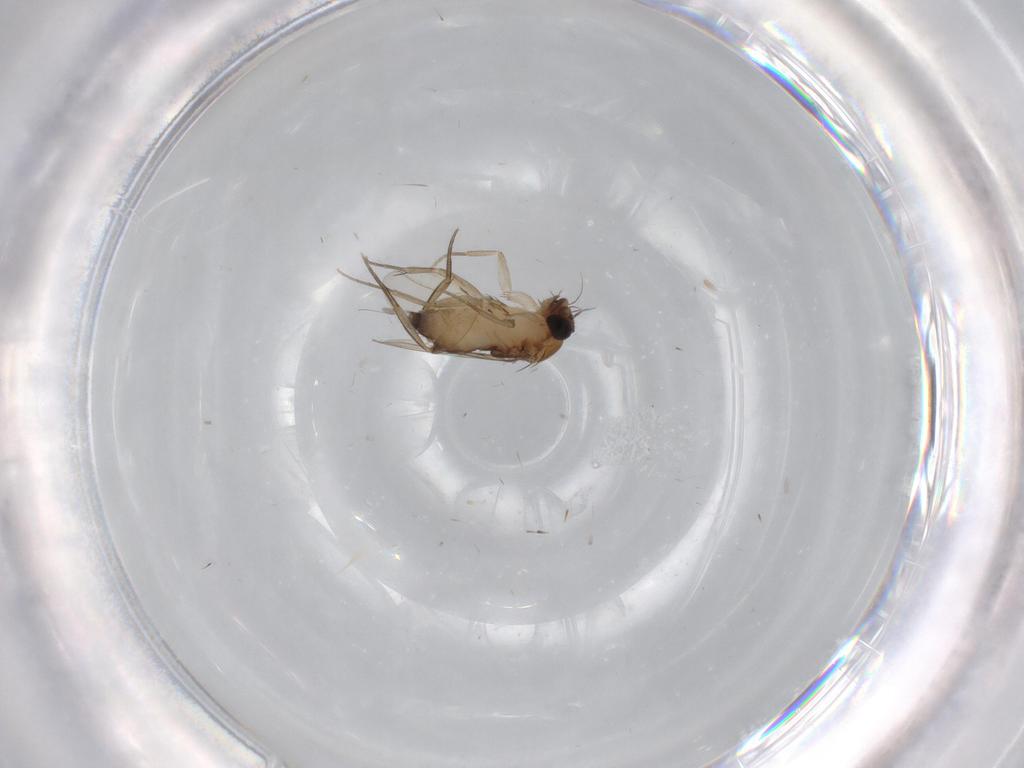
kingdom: Animalia
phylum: Arthropoda
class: Insecta
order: Diptera
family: Phoridae
